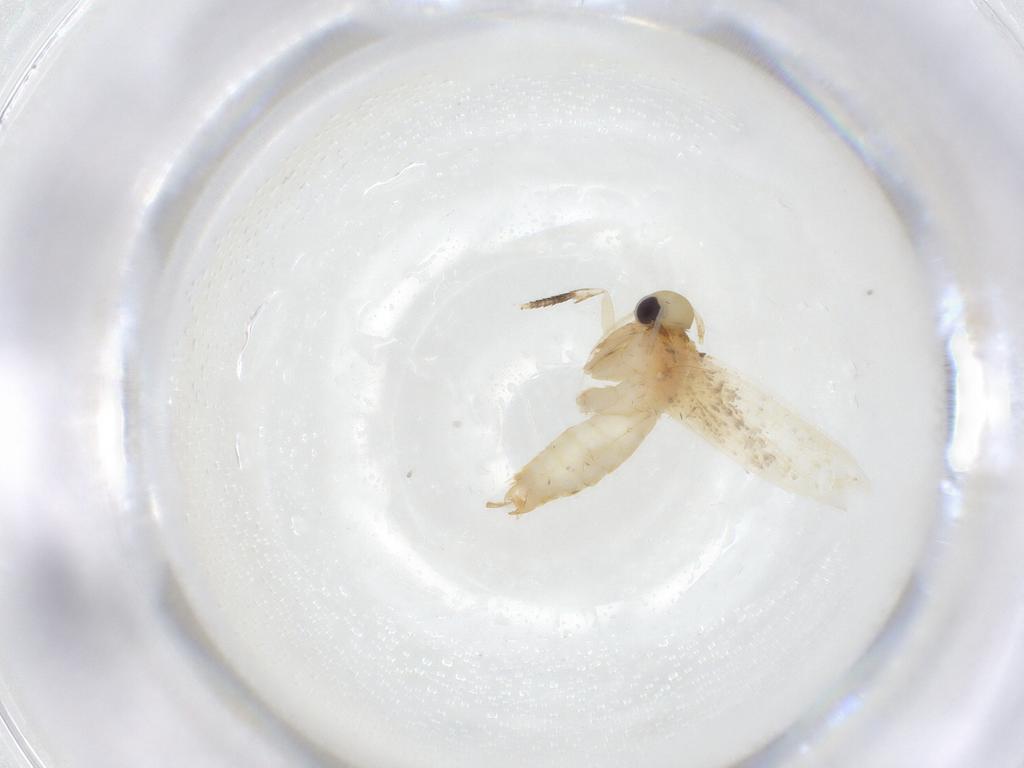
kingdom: Animalia
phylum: Arthropoda
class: Insecta
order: Lepidoptera
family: Erebidae
